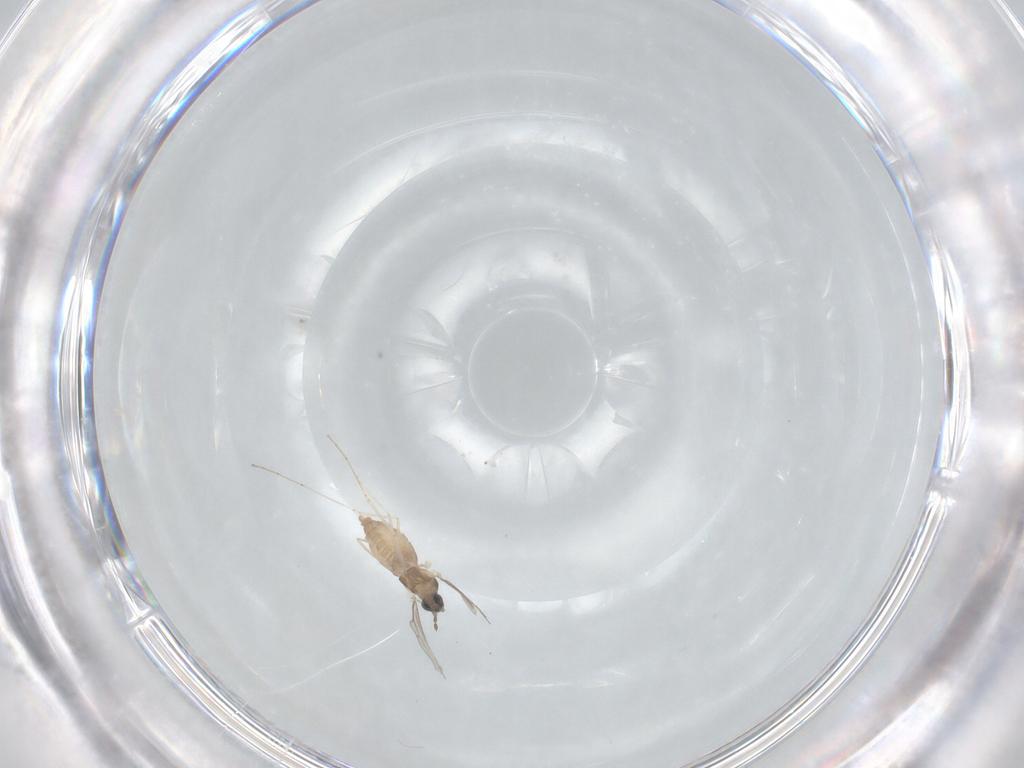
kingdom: Animalia
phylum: Arthropoda
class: Insecta
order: Diptera
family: Cecidomyiidae
